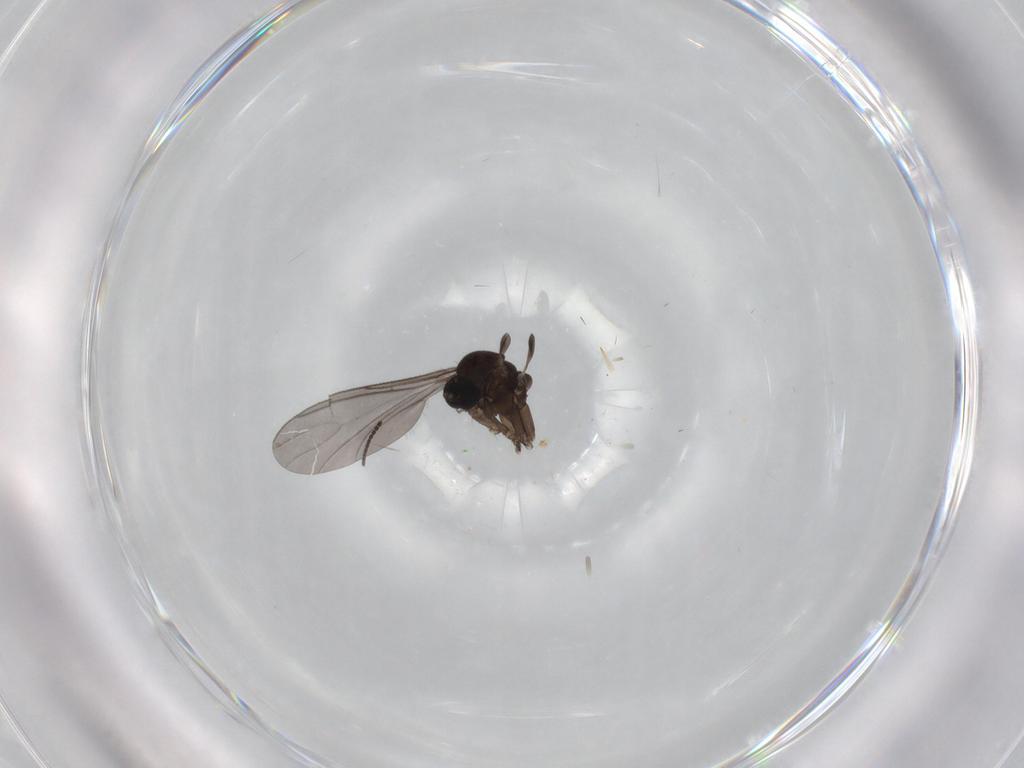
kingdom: Animalia
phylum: Arthropoda
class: Insecta
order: Diptera
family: Sciaridae
